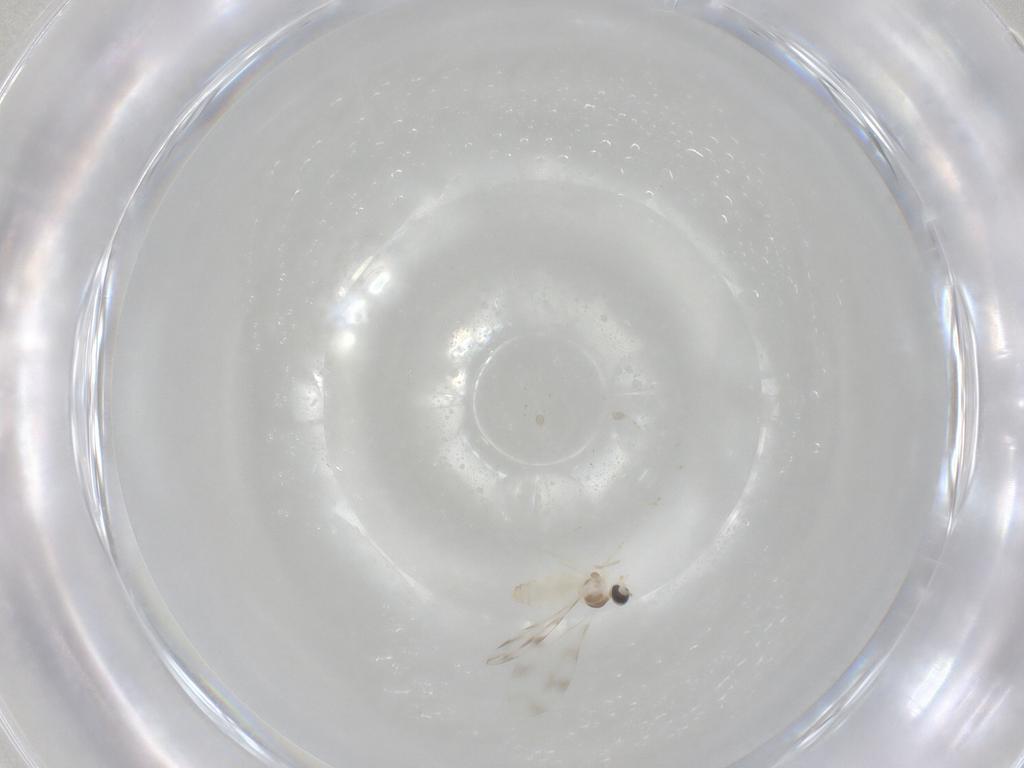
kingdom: Animalia
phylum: Arthropoda
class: Insecta
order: Diptera
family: Cecidomyiidae
